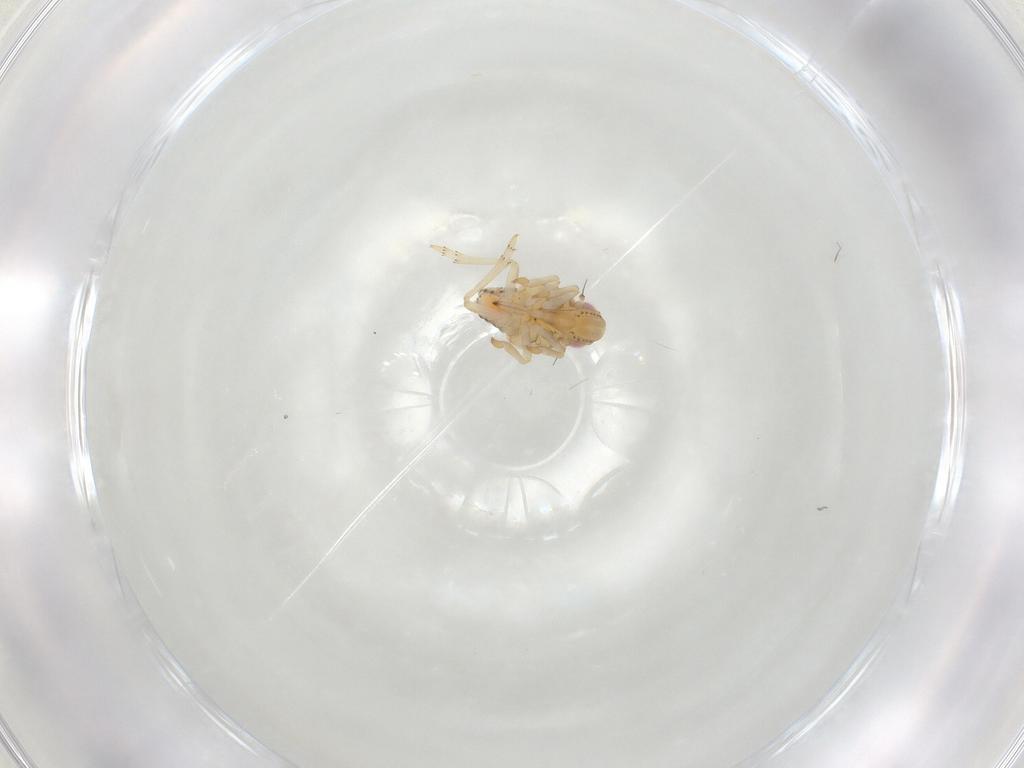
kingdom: Animalia
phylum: Arthropoda
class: Insecta
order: Hemiptera
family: Tropiduchidae
